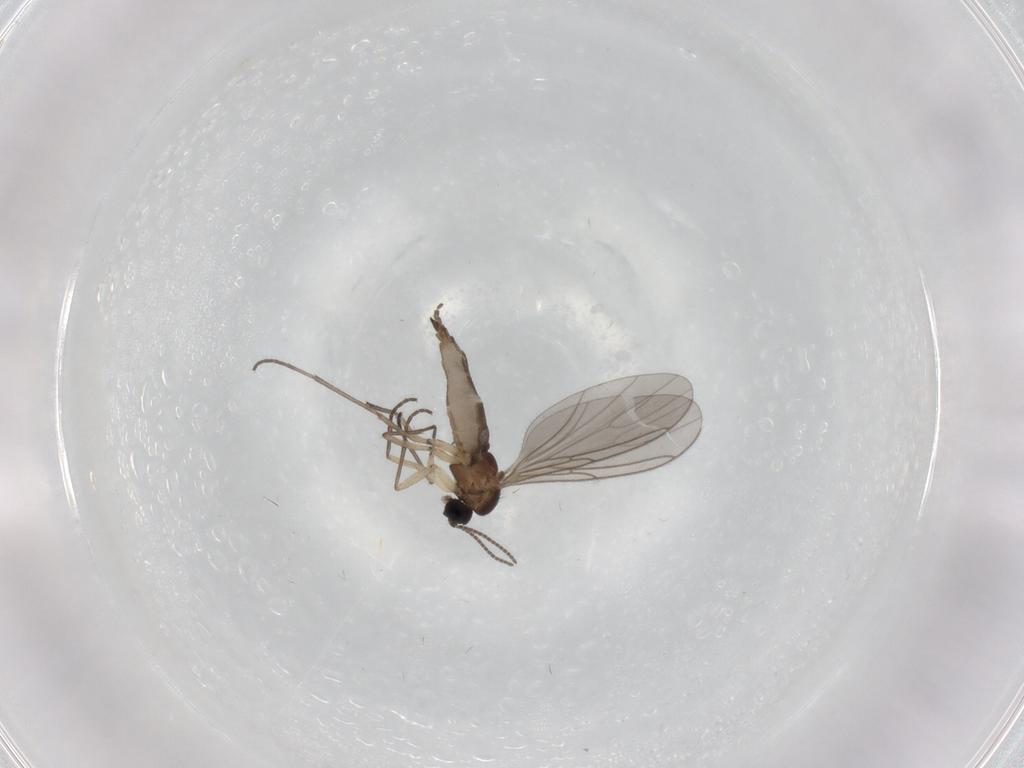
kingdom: Animalia
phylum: Arthropoda
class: Insecta
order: Diptera
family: Sciaridae
